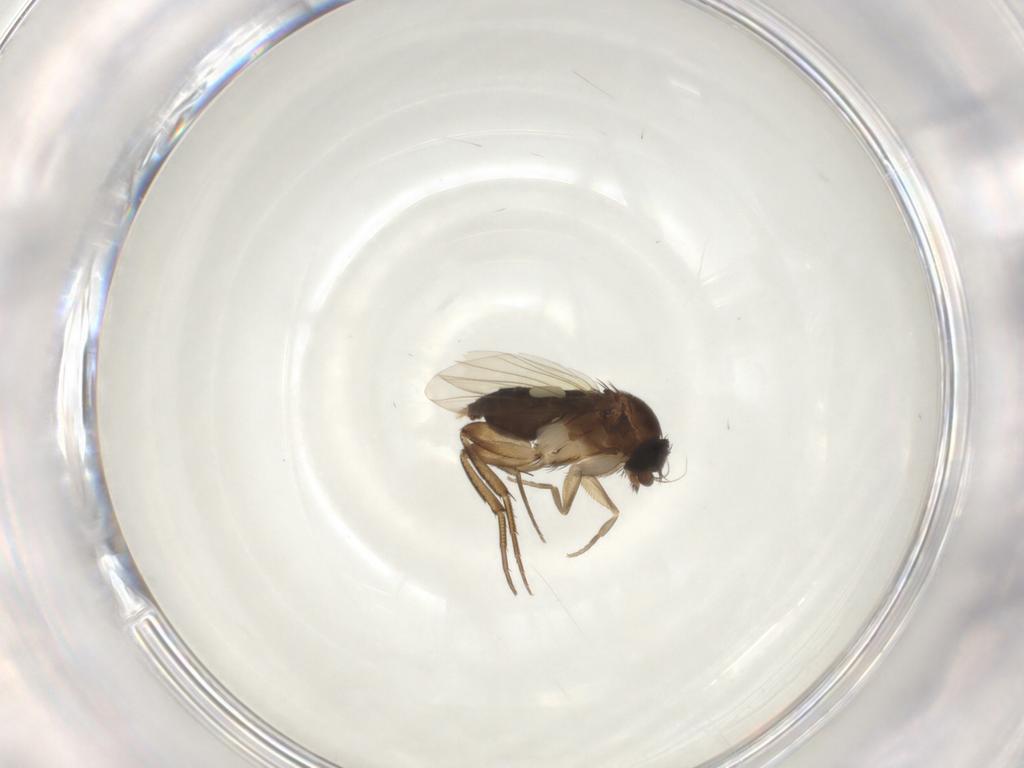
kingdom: Animalia
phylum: Arthropoda
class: Insecta
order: Diptera
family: Phoridae
